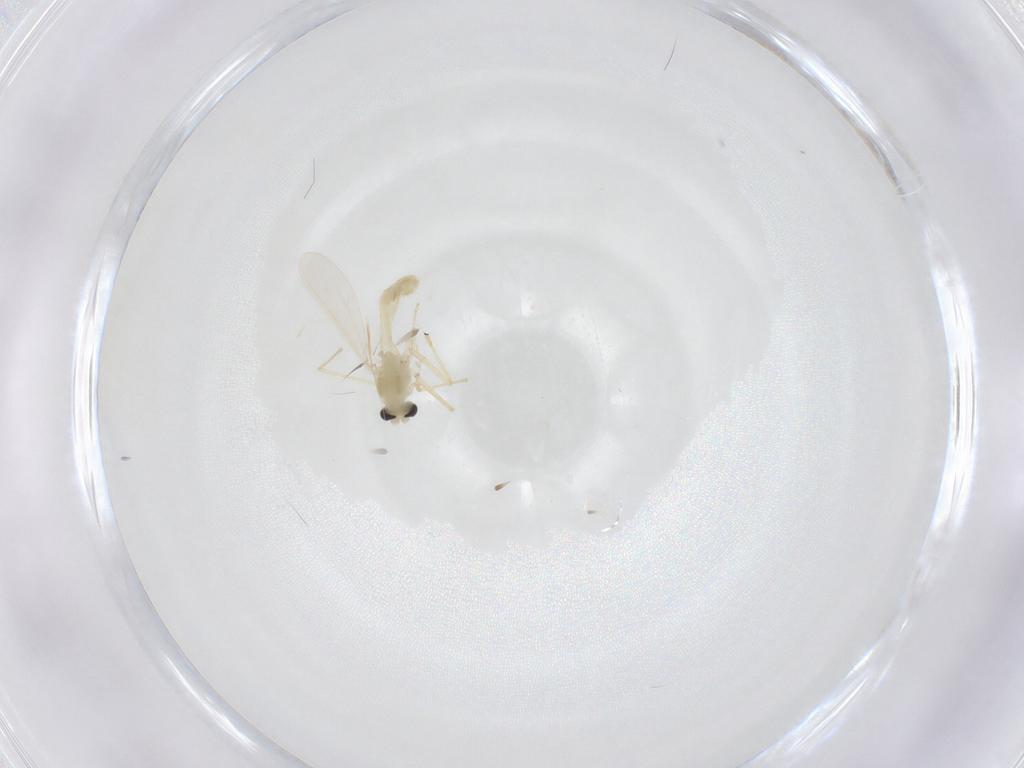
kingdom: Animalia
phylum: Arthropoda
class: Insecta
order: Diptera
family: Chironomidae
